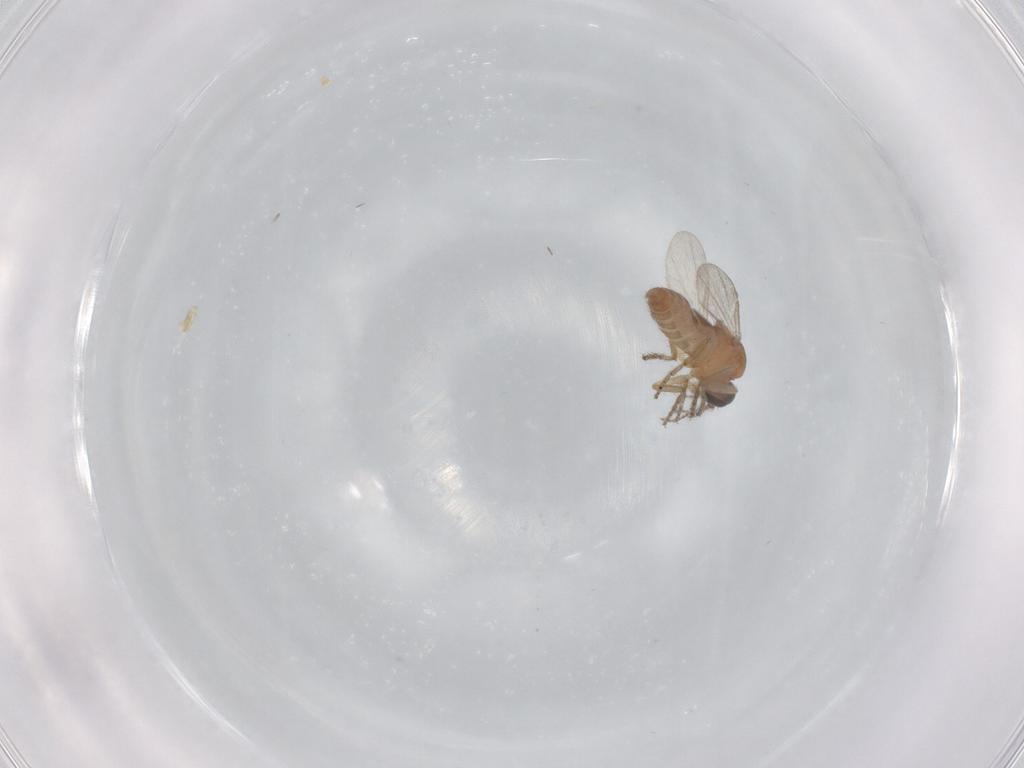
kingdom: Animalia
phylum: Arthropoda
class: Insecta
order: Diptera
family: Ceratopogonidae
